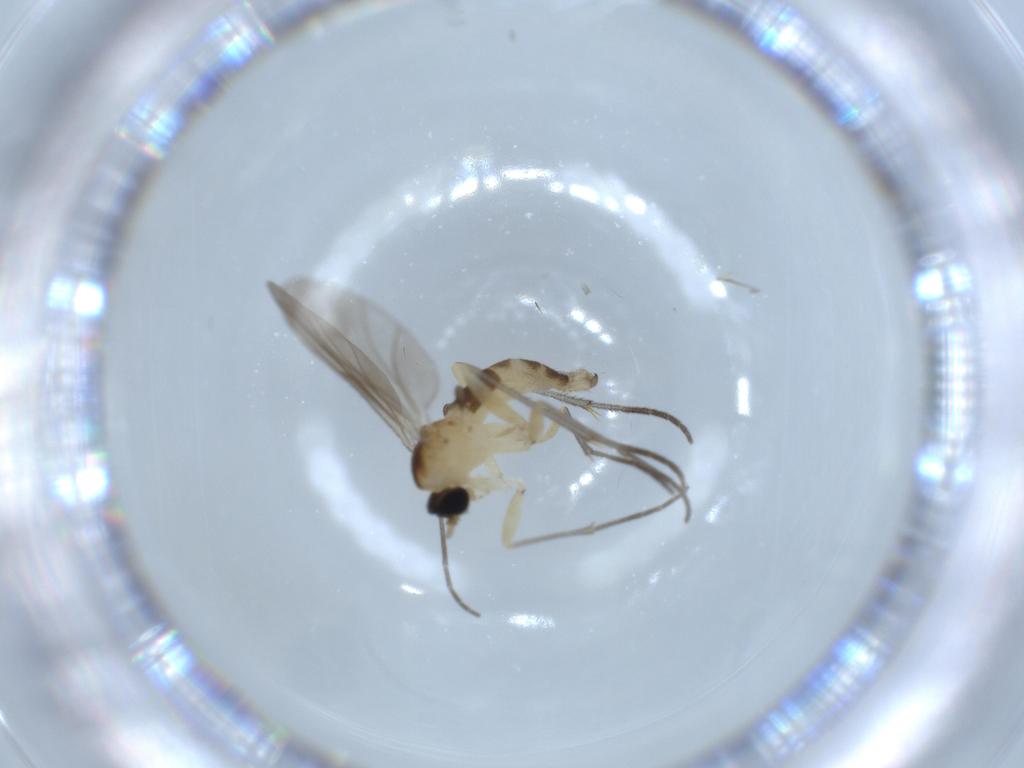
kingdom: Animalia
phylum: Arthropoda
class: Insecta
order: Diptera
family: Sciaridae
